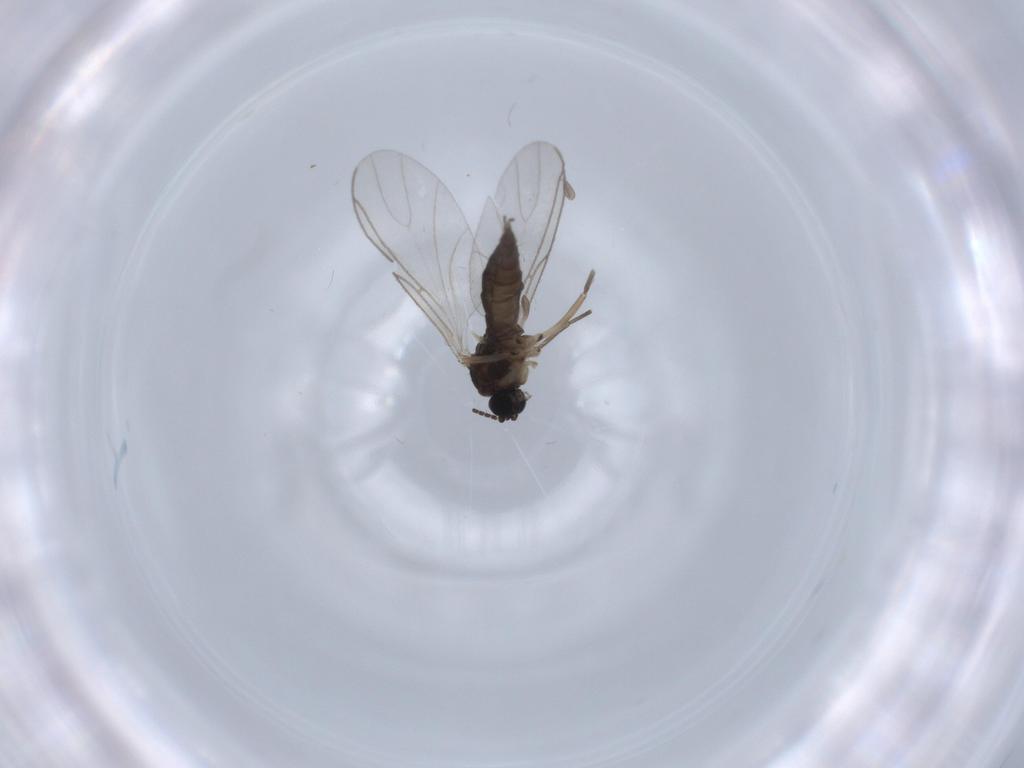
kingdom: Animalia
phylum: Arthropoda
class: Insecta
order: Diptera
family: Sciaridae
